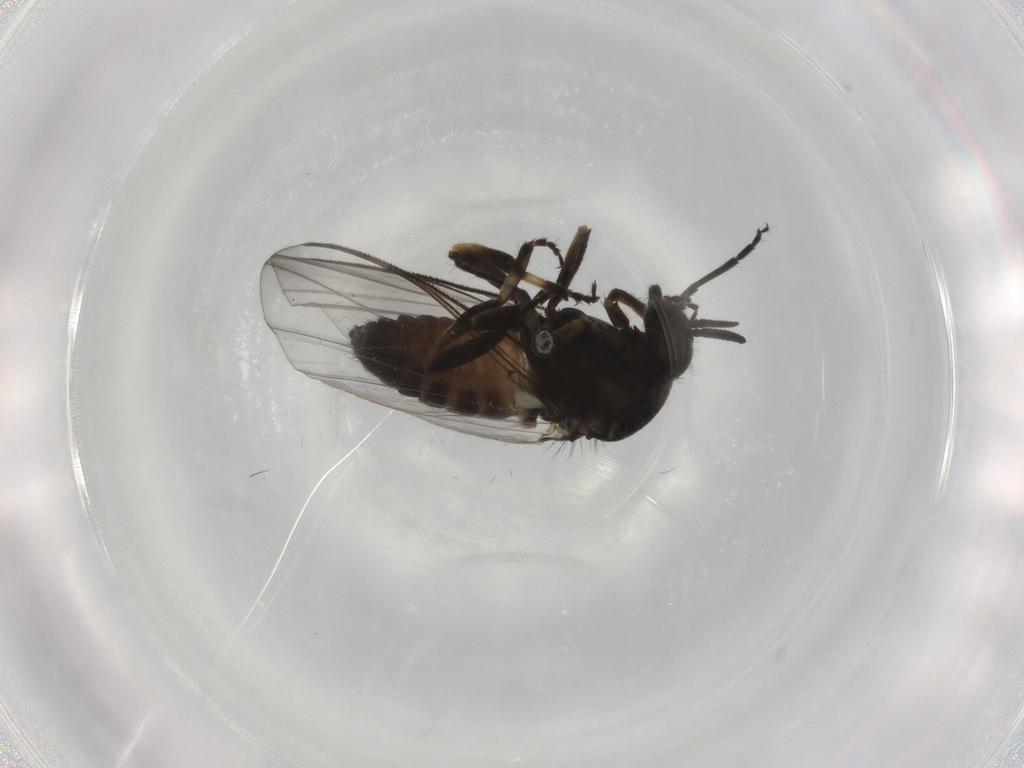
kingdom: Animalia
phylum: Arthropoda
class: Insecta
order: Diptera
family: Simuliidae
